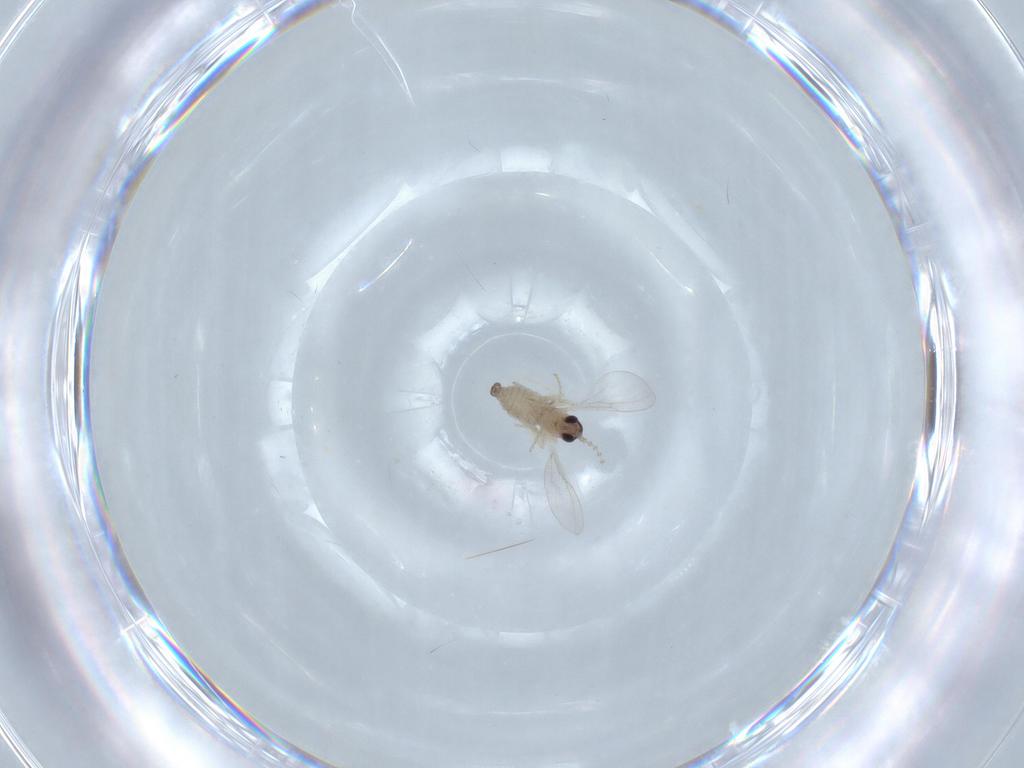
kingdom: Animalia
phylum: Arthropoda
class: Insecta
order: Diptera
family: Cecidomyiidae
